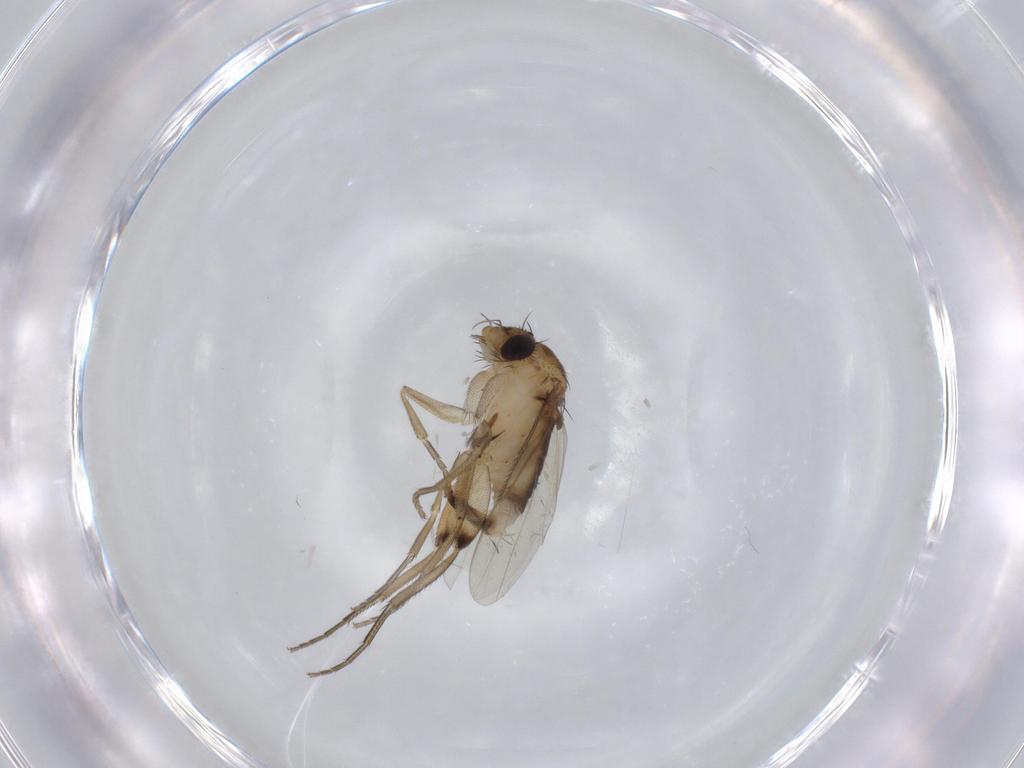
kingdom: Animalia
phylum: Arthropoda
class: Insecta
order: Diptera
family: Phoridae
